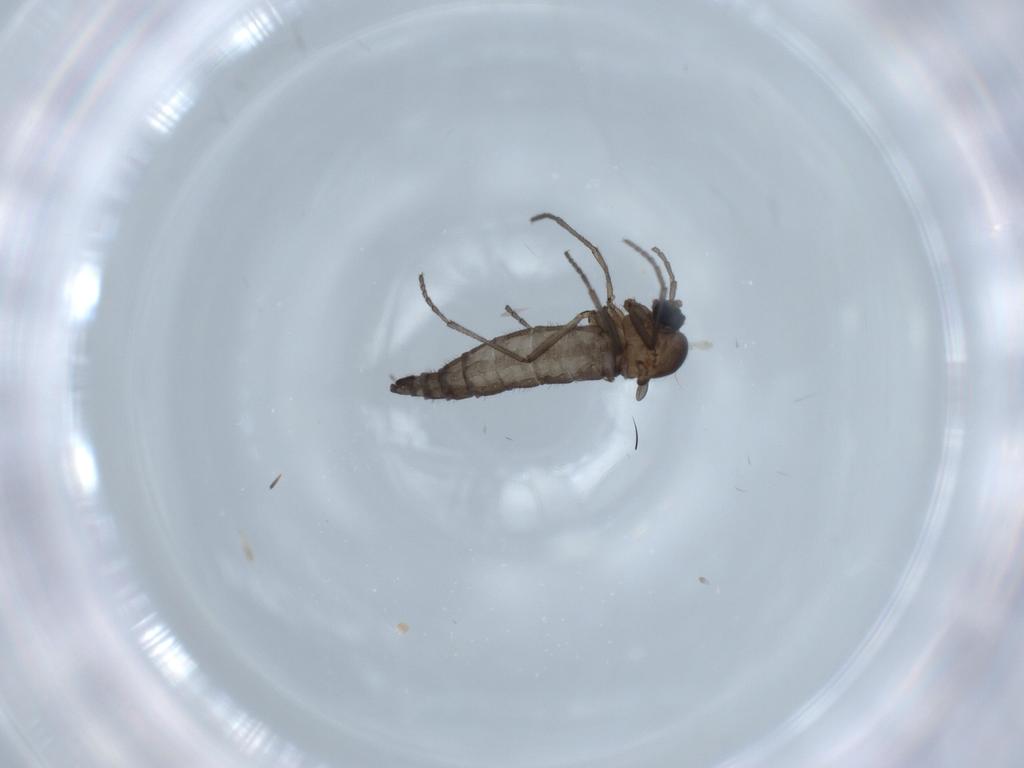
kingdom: Animalia
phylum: Arthropoda
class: Insecta
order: Diptera
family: Sciaridae
